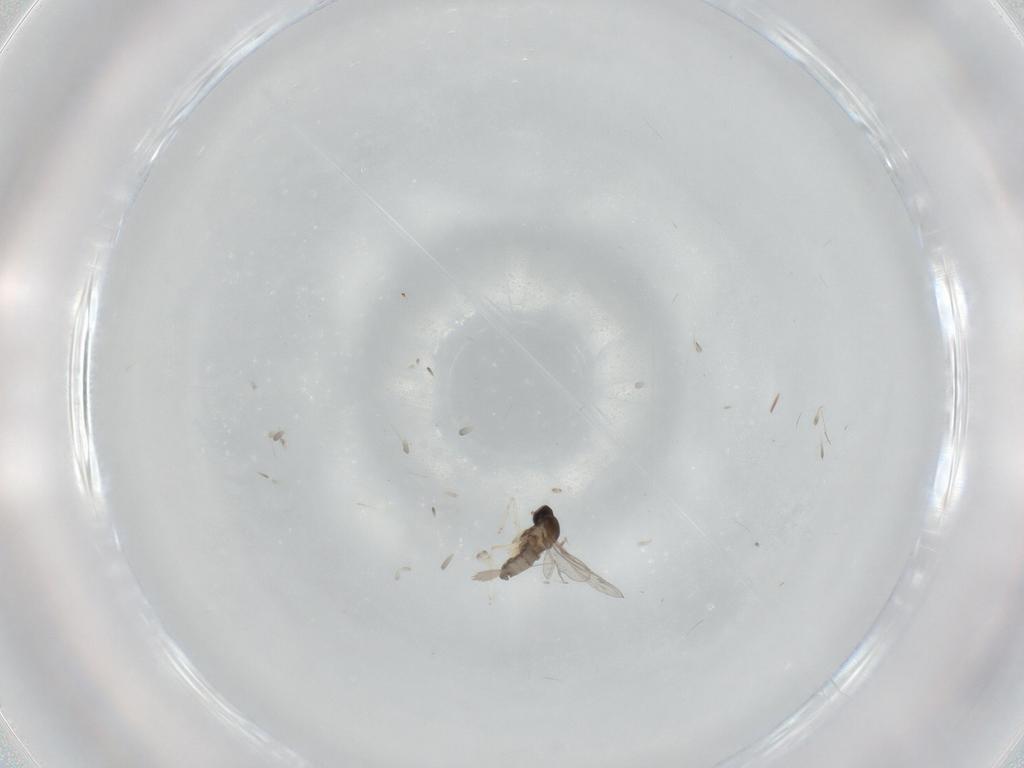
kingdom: Animalia
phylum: Arthropoda
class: Insecta
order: Diptera
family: Cecidomyiidae
